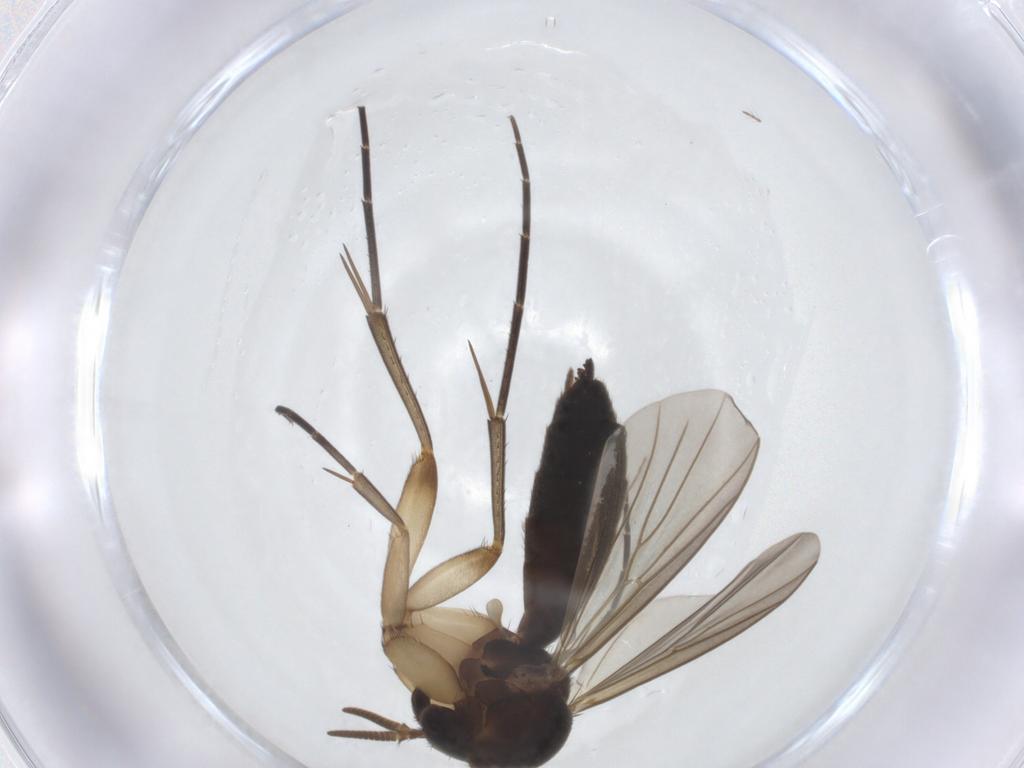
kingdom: Animalia
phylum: Arthropoda
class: Insecta
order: Diptera
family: Mycetophilidae
